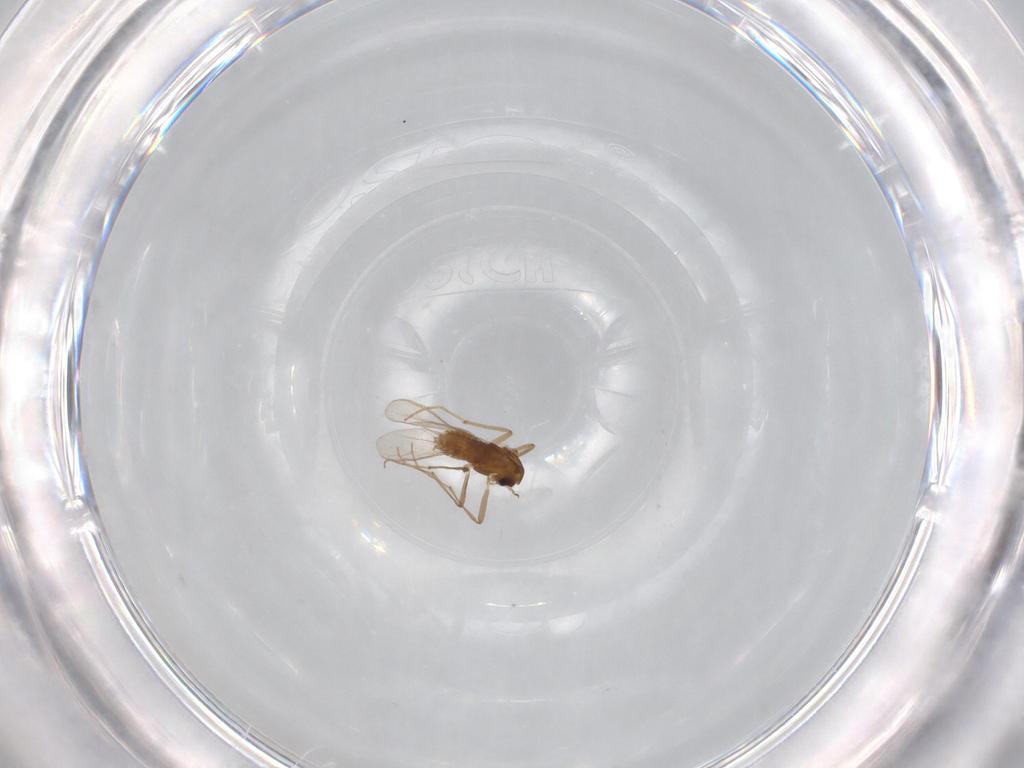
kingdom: Animalia
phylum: Arthropoda
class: Insecta
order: Diptera
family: Chironomidae
